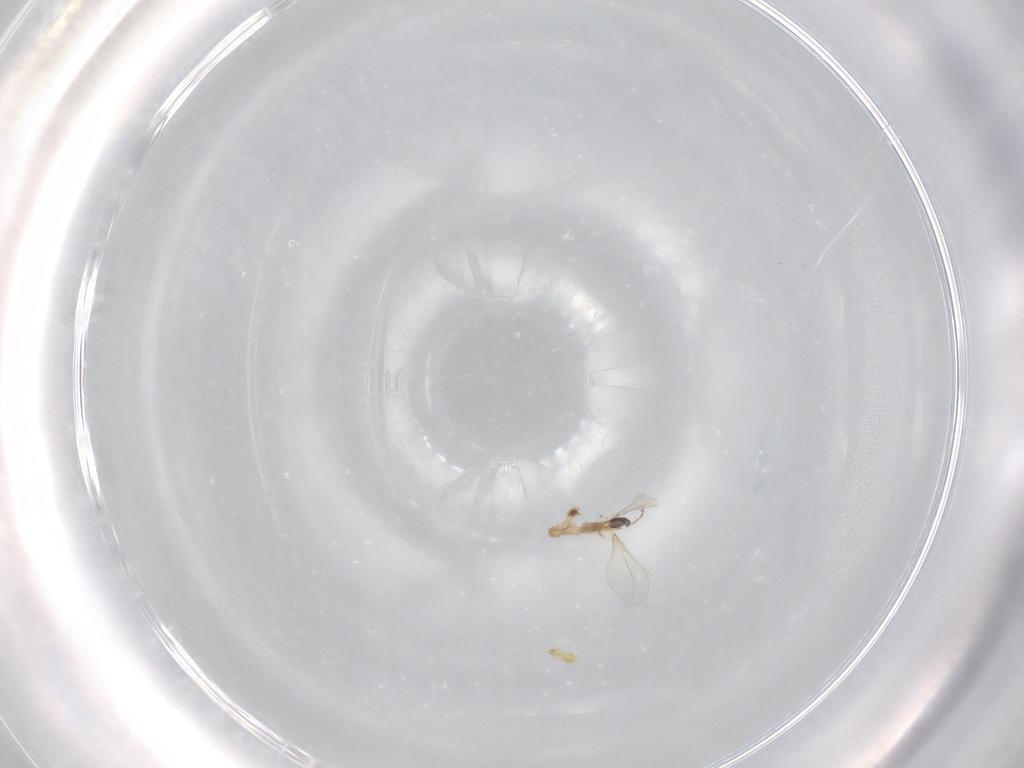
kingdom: Animalia
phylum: Arthropoda
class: Insecta
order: Diptera
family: Cecidomyiidae
